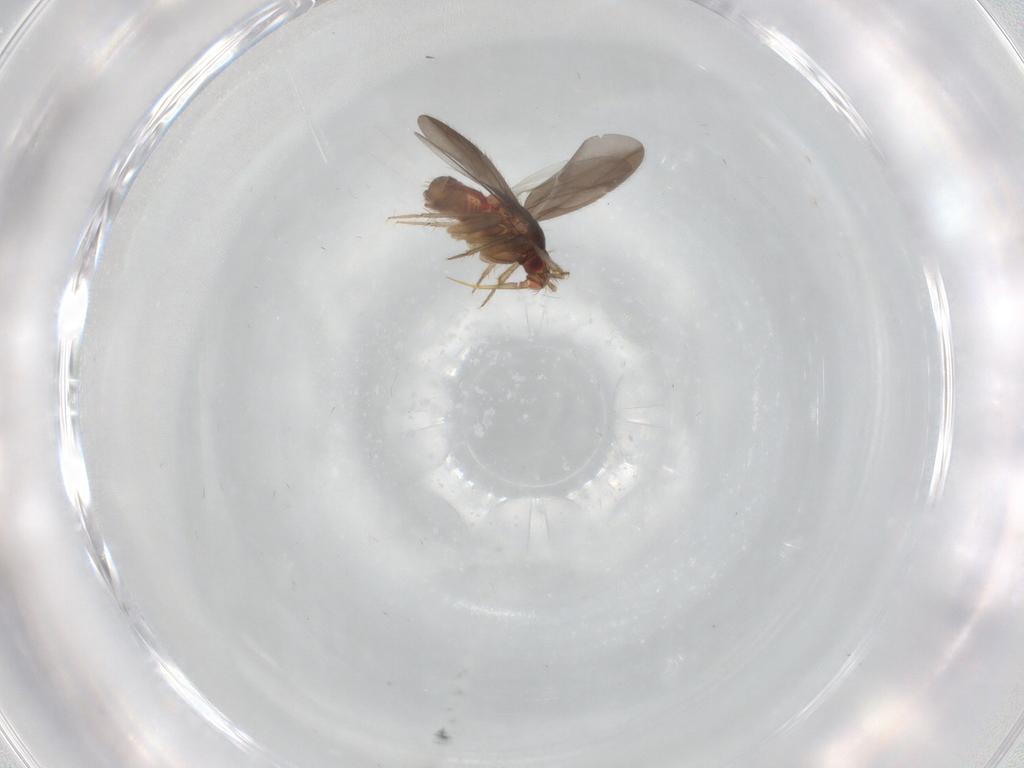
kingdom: Animalia
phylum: Arthropoda
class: Insecta
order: Hemiptera
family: Ceratocombidae
